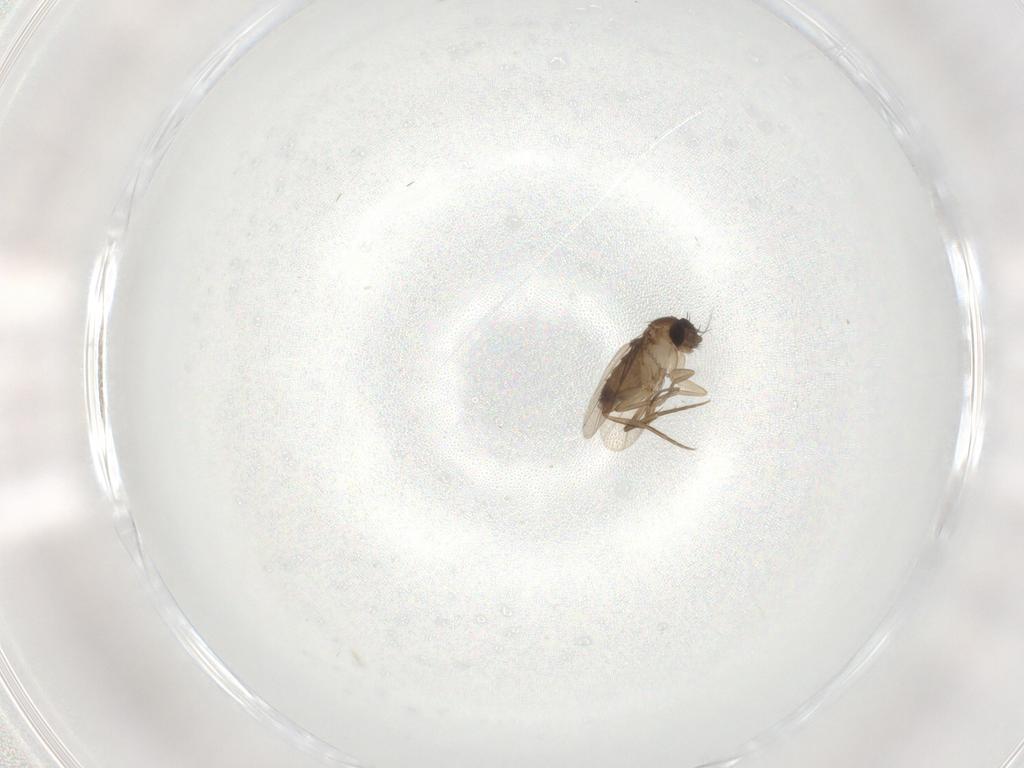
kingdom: Animalia
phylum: Arthropoda
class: Insecta
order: Diptera
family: Phoridae
